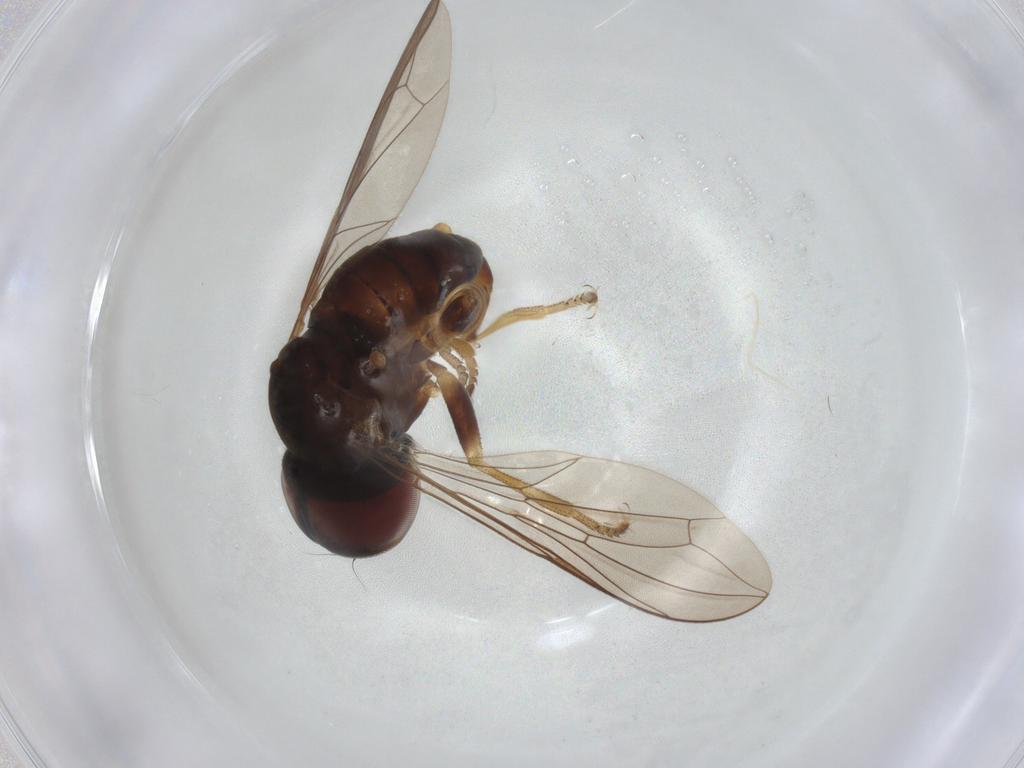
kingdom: Animalia
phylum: Arthropoda
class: Insecta
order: Diptera
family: Pipunculidae
